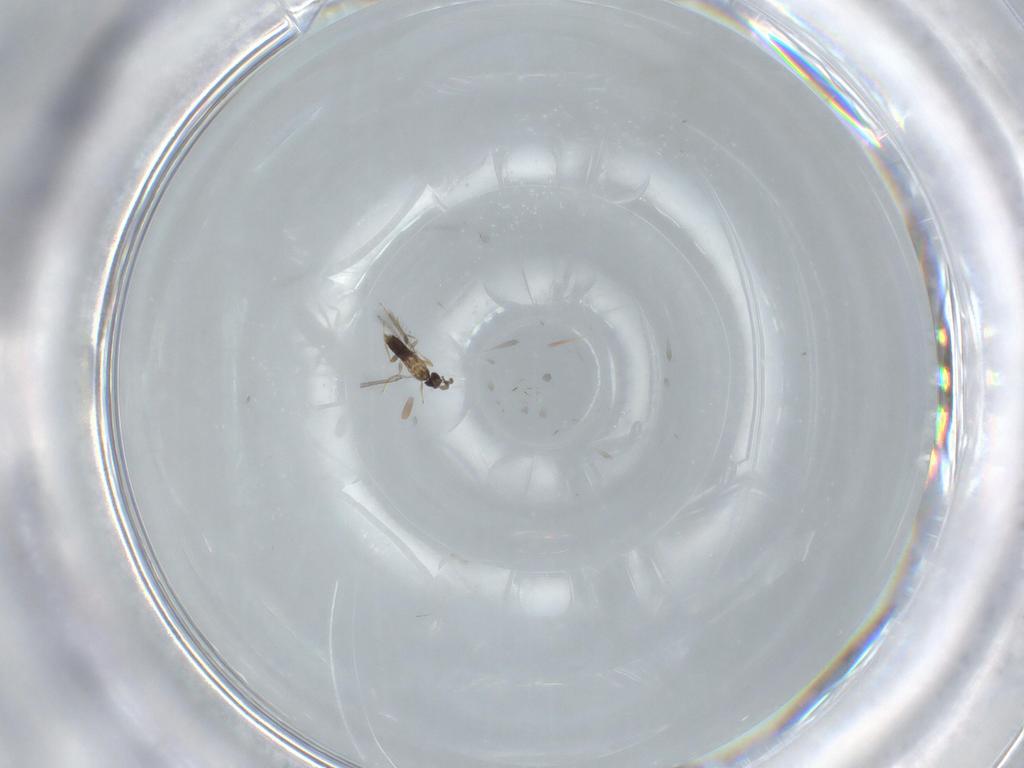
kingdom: Animalia
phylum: Arthropoda
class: Insecta
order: Hymenoptera
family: Mymaridae
